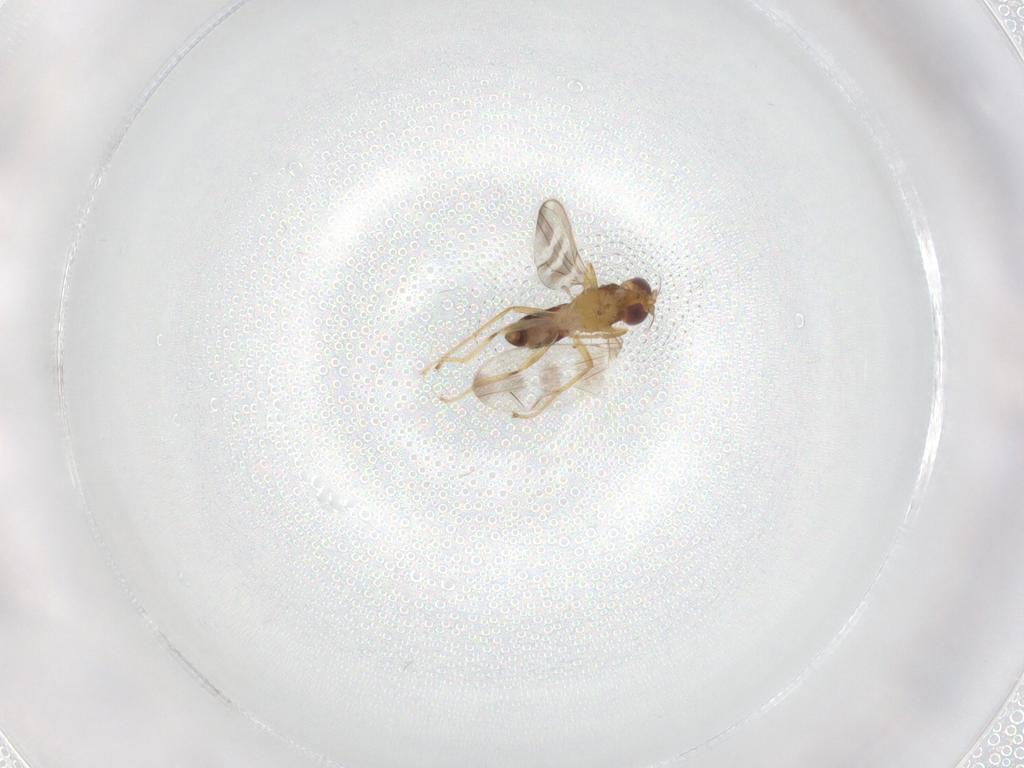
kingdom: Animalia
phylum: Arthropoda
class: Insecta
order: Diptera
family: Periscelididae
